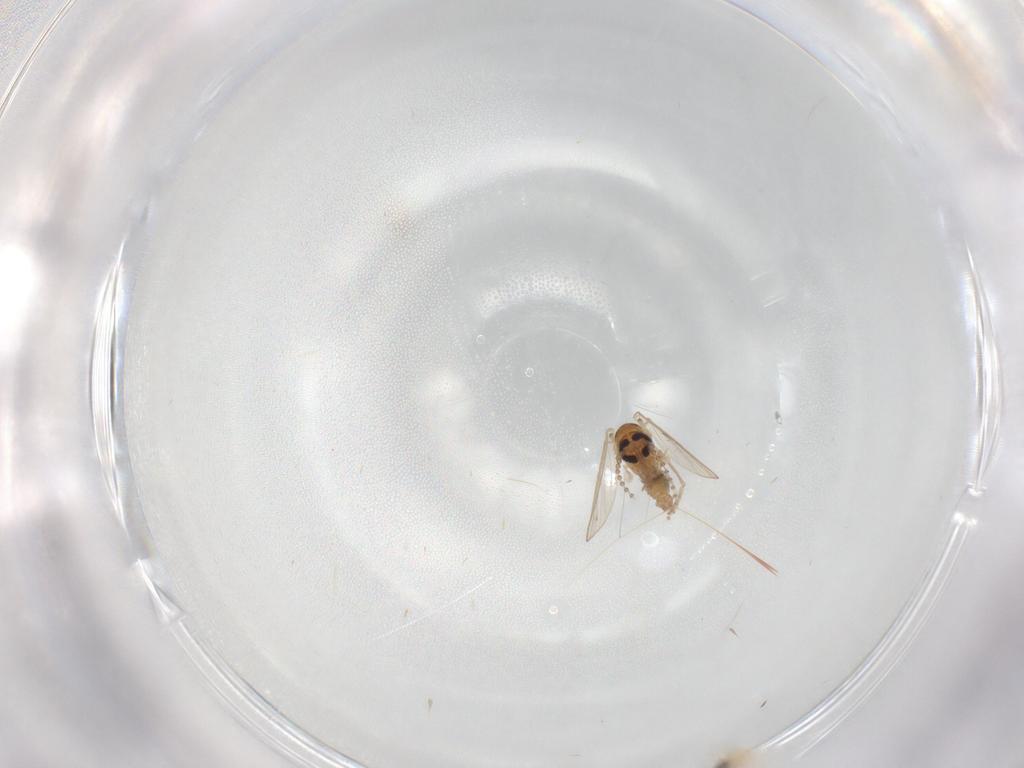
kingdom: Animalia
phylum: Arthropoda
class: Insecta
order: Diptera
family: Cecidomyiidae
